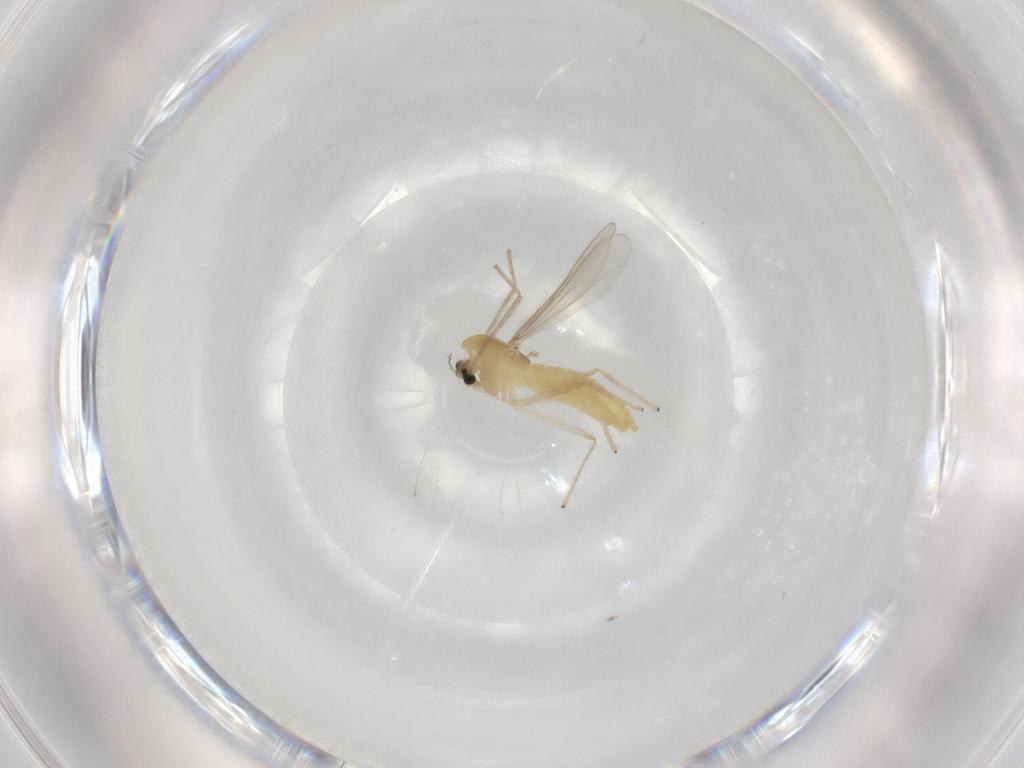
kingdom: Animalia
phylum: Arthropoda
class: Insecta
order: Diptera
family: Chironomidae
